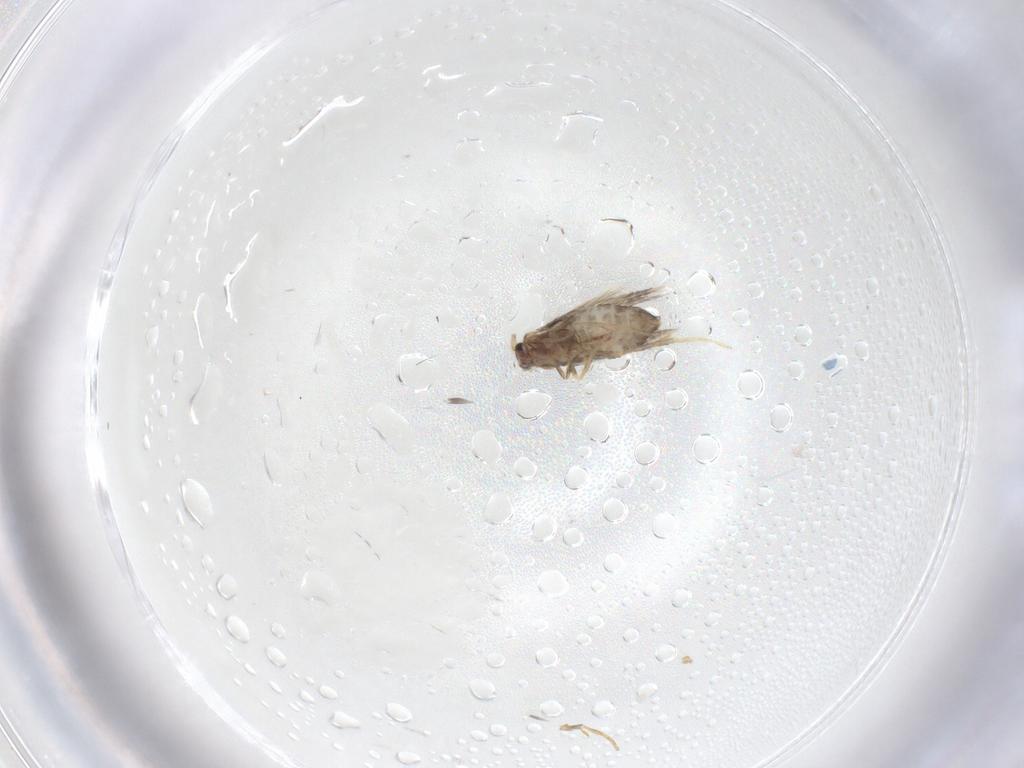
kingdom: Animalia
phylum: Arthropoda
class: Insecta
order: Lepidoptera
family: Nepticulidae
